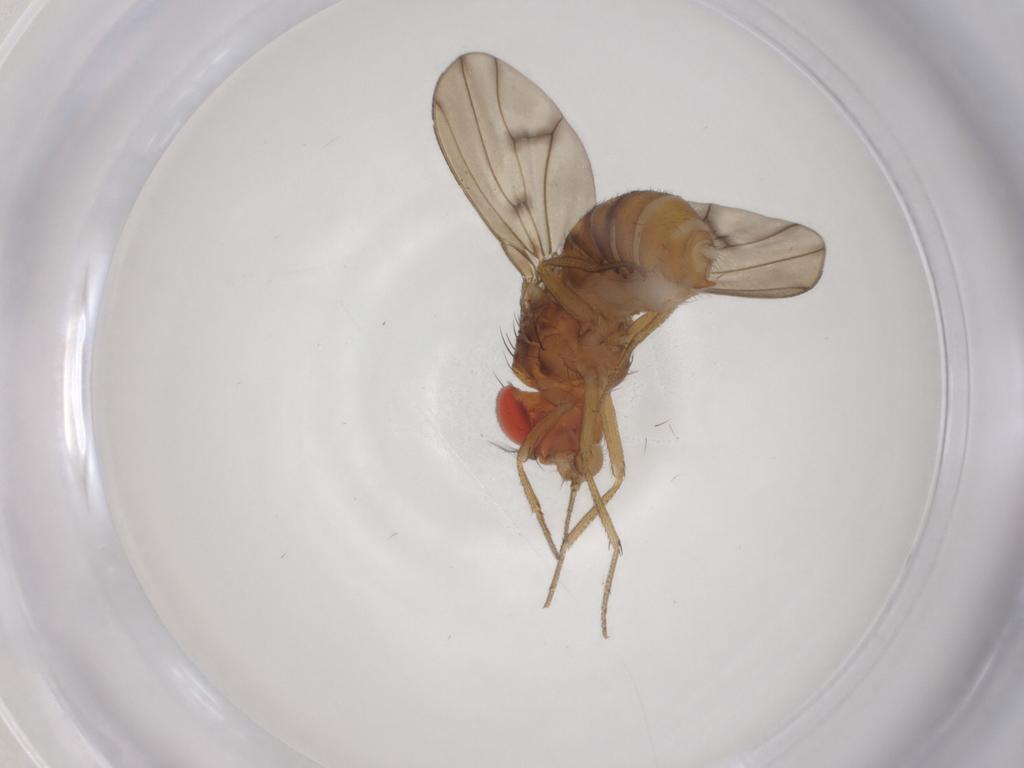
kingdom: Animalia
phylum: Arthropoda
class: Insecta
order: Diptera
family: Drosophilidae
